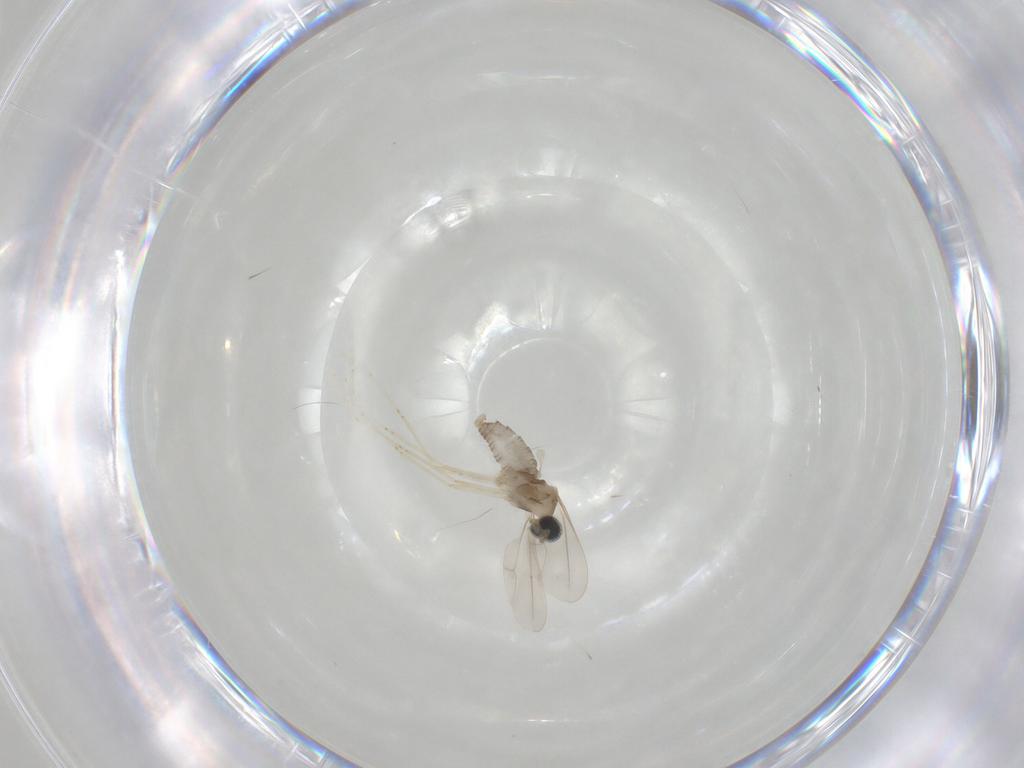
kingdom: Animalia
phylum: Arthropoda
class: Insecta
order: Diptera
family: Cecidomyiidae
